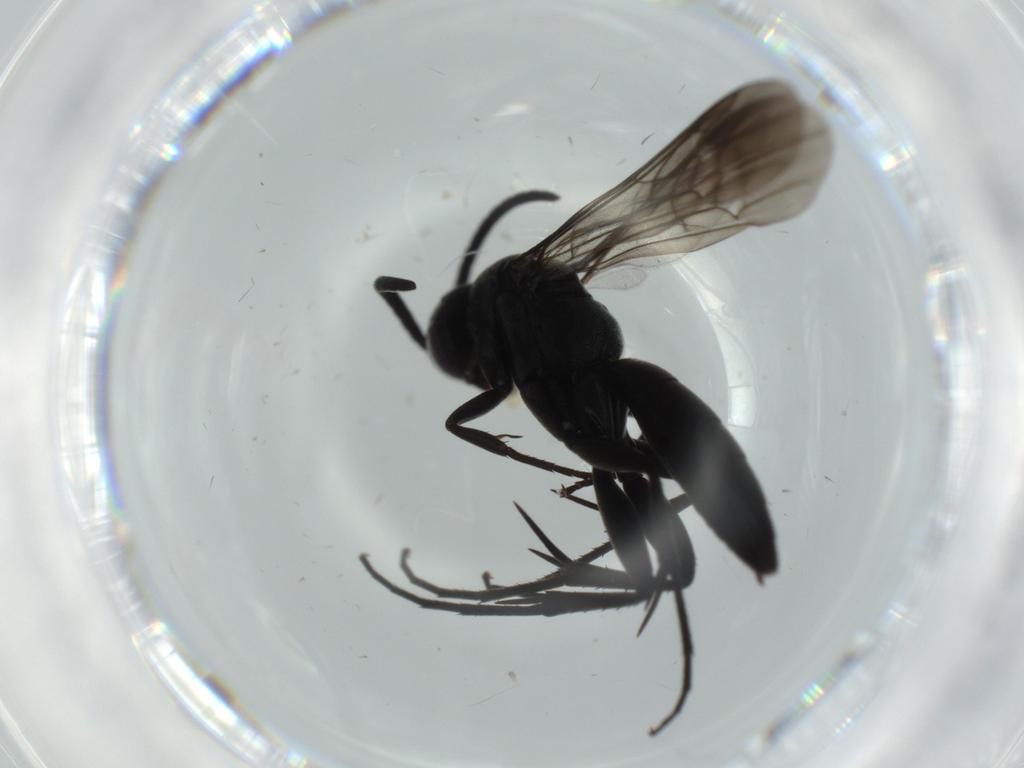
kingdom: Animalia
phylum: Arthropoda
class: Insecta
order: Hymenoptera
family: Pompilidae
